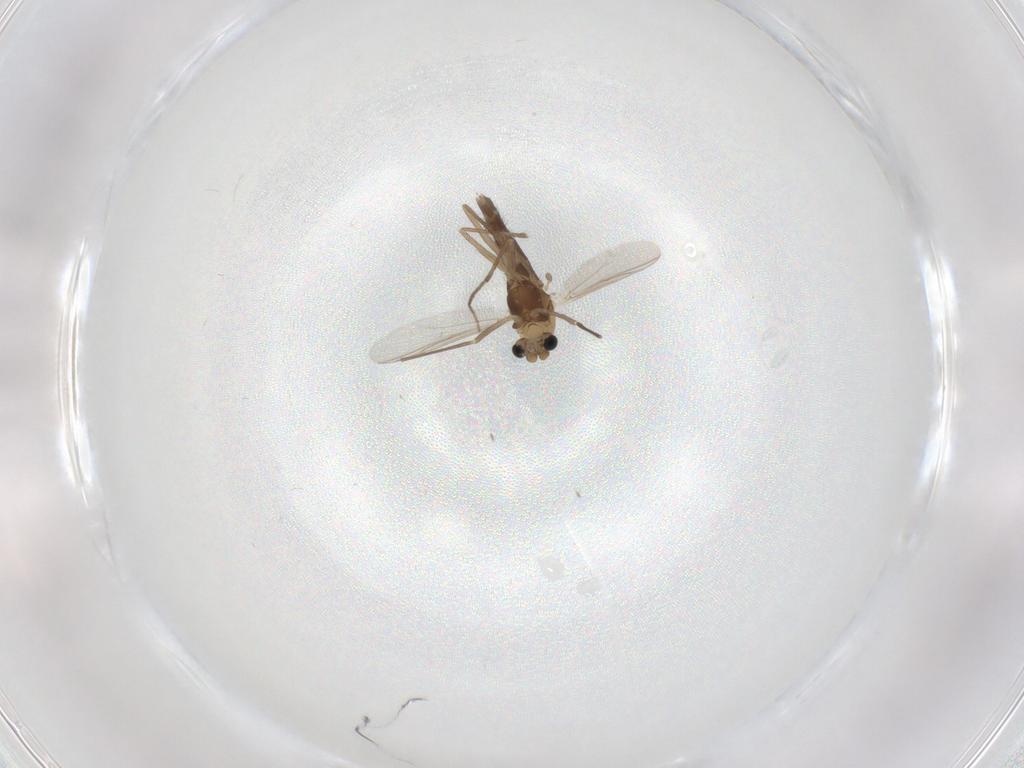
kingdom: Animalia
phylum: Arthropoda
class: Insecta
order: Diptera
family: Chironomidae
